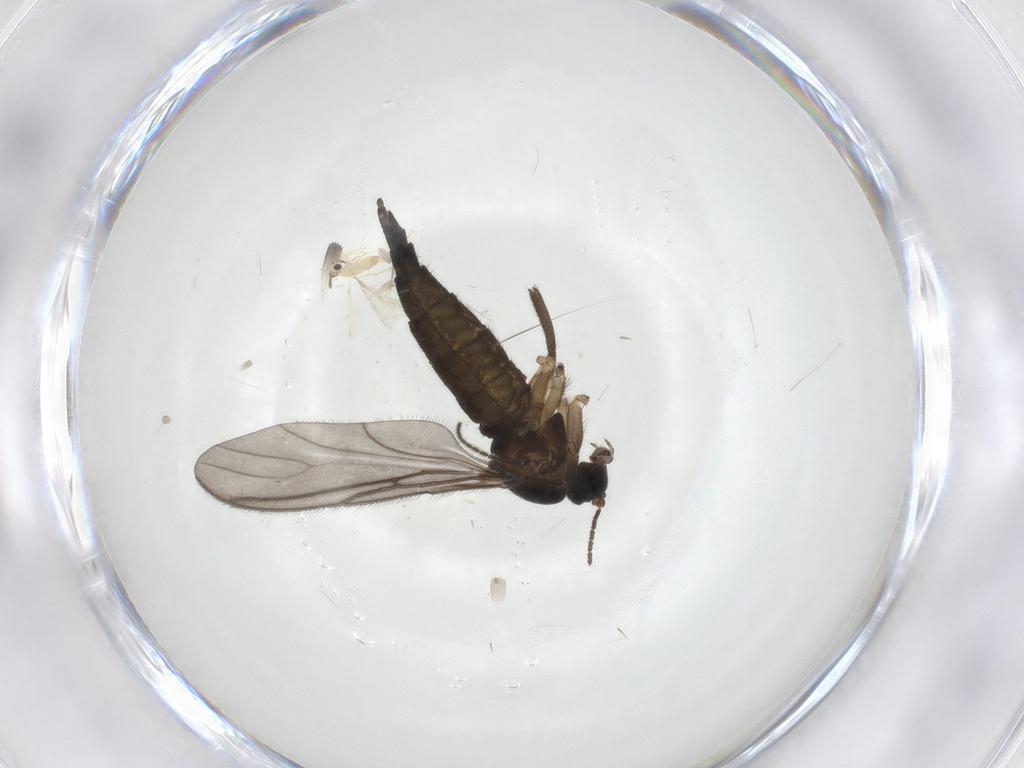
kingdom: Animalia
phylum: Arthropoda
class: Insecta
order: Diptera
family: Sciaridae
